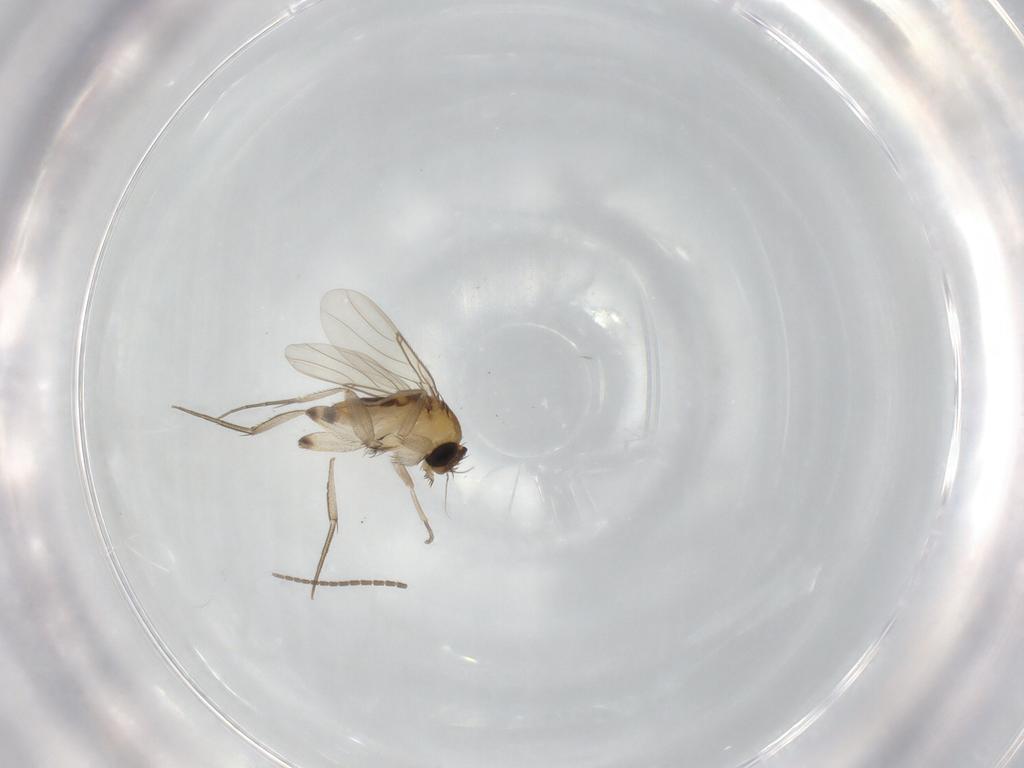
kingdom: Animalia
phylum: Arthropoda
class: Insecta
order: Diptera
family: Phoridae
